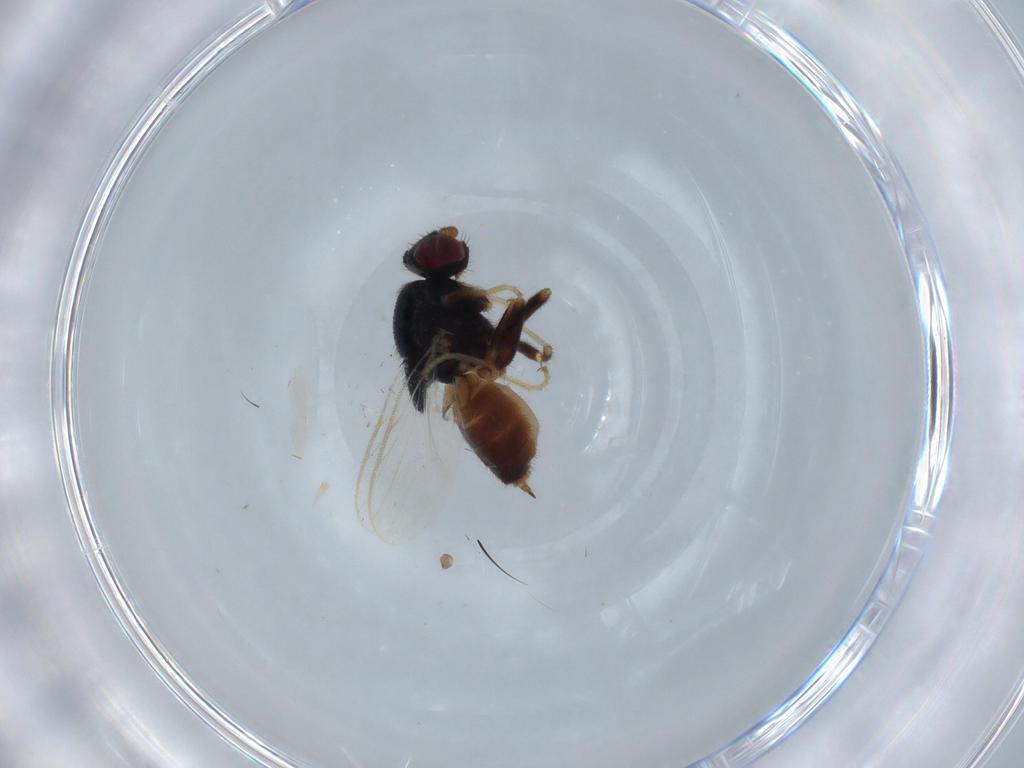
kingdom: Animalia
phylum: Arthropoda
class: Insecta
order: Diptera
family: Chloropidae
